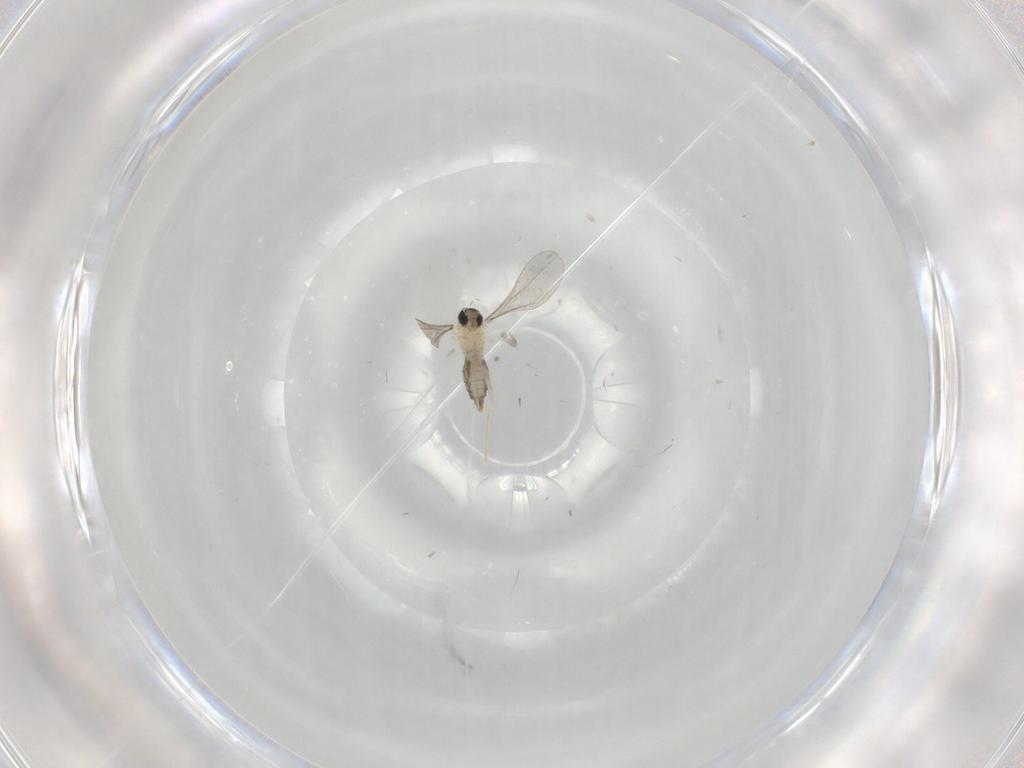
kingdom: Animalia
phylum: Arthropoda
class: Insecta
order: Diptera
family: Cecidomyiidae
